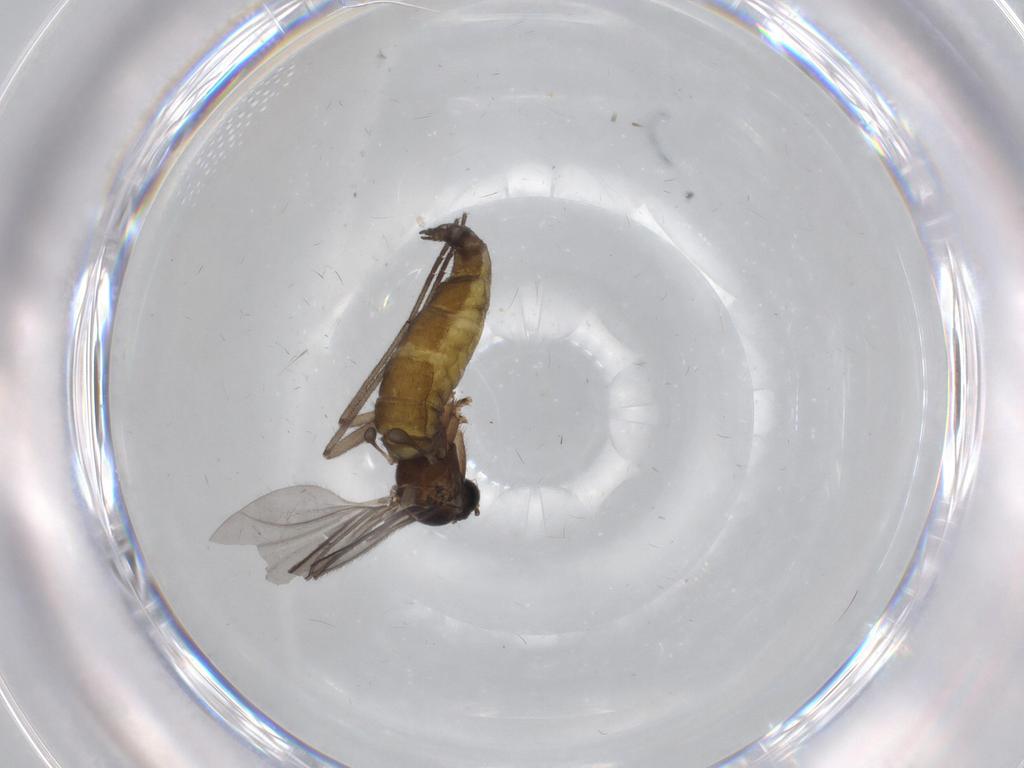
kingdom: Animalia
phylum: Arthropoda
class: Insecta
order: Diptera
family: Sciaridae
